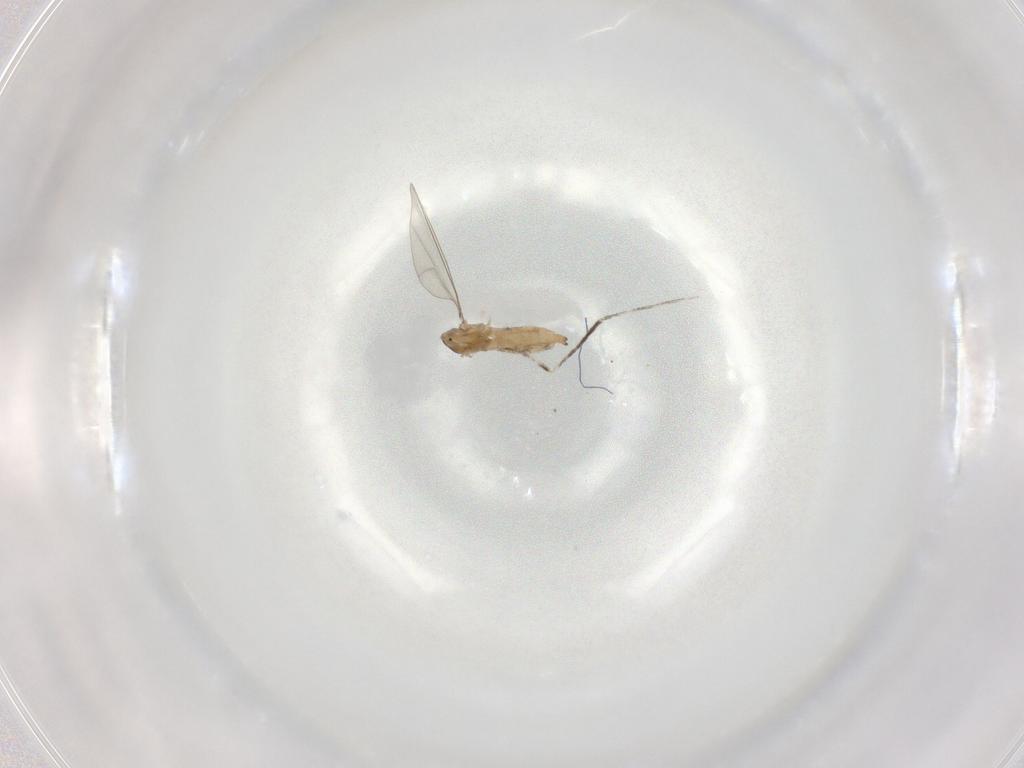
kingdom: Animalia
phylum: Arthropoda
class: Insecta
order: Diptera
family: Cecidomyiidae
